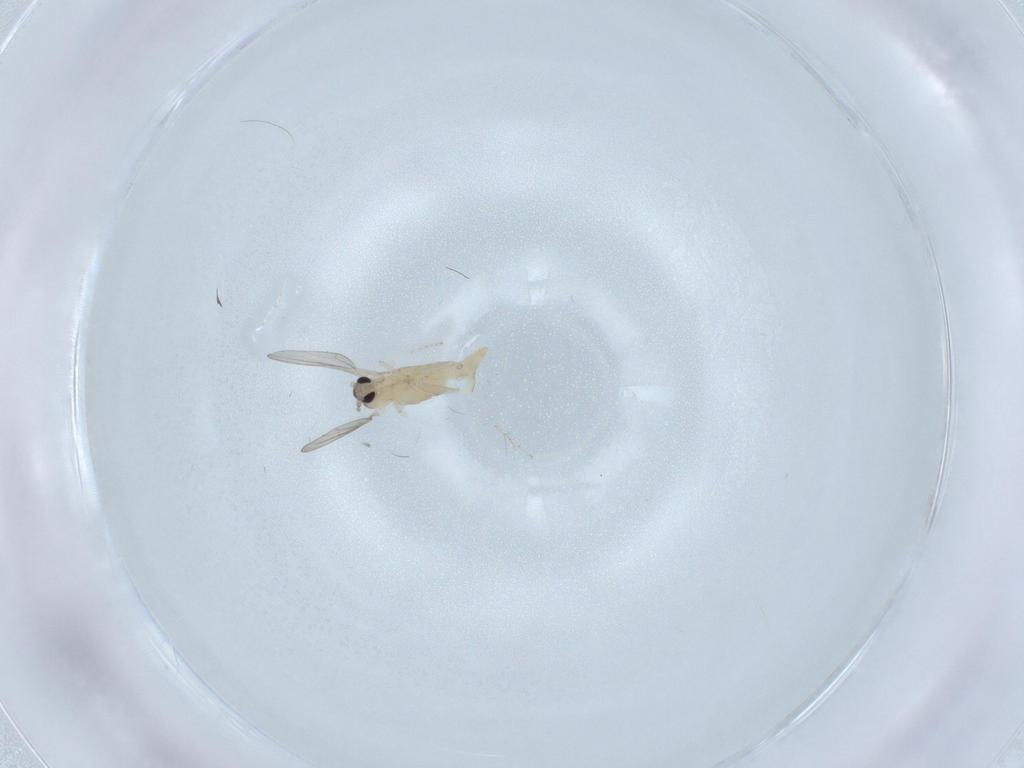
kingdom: Animalia
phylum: Arthropoda
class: Insecta
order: Diptera
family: Cecidomyiidae
